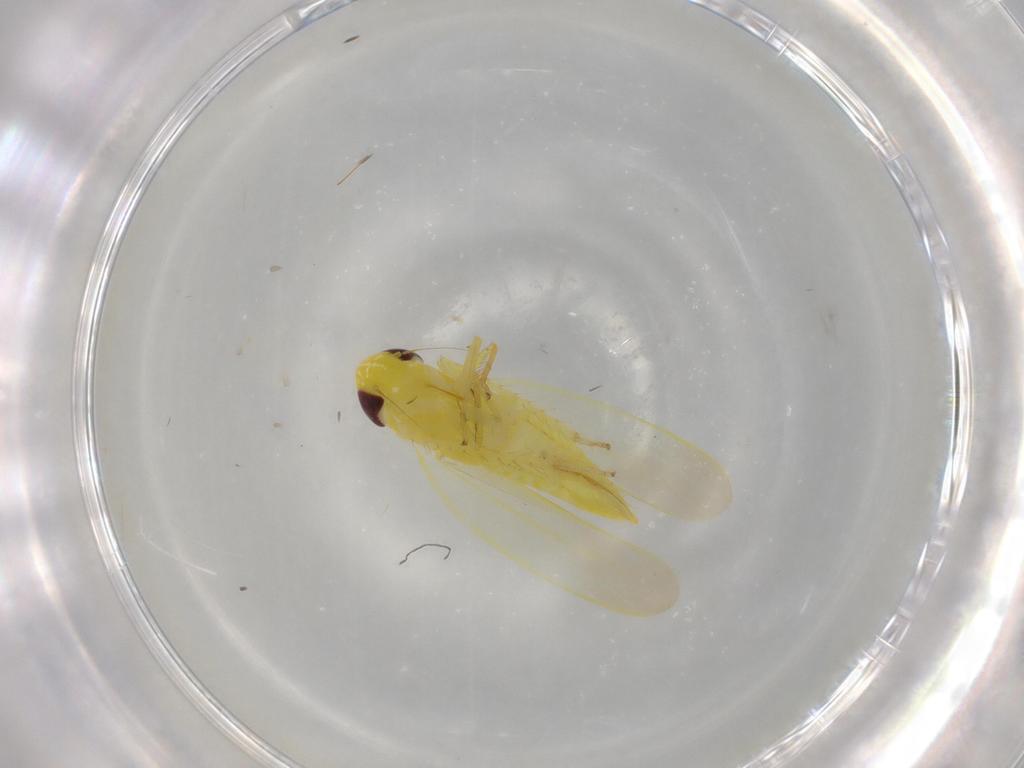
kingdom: Animalia
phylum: Arthropoda
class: Insecta
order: Hemiptera
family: Cicadellidae
